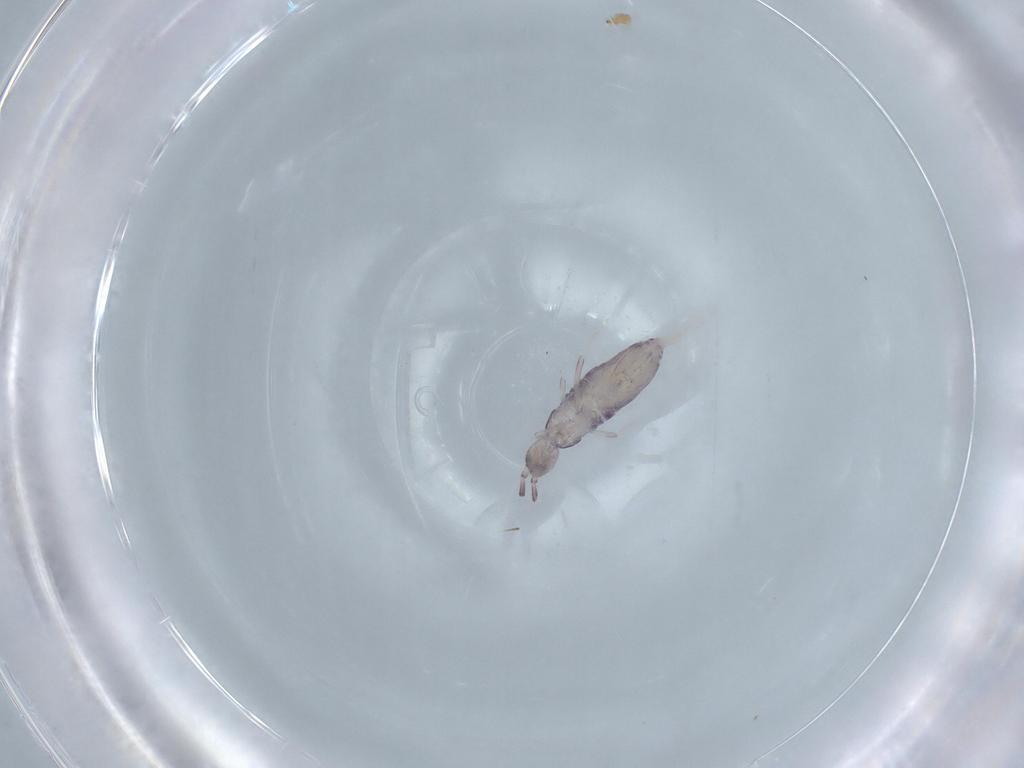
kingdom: Animalia
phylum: Arthropoda
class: Collembola
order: Poduromorpha
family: Hypogastruridae
